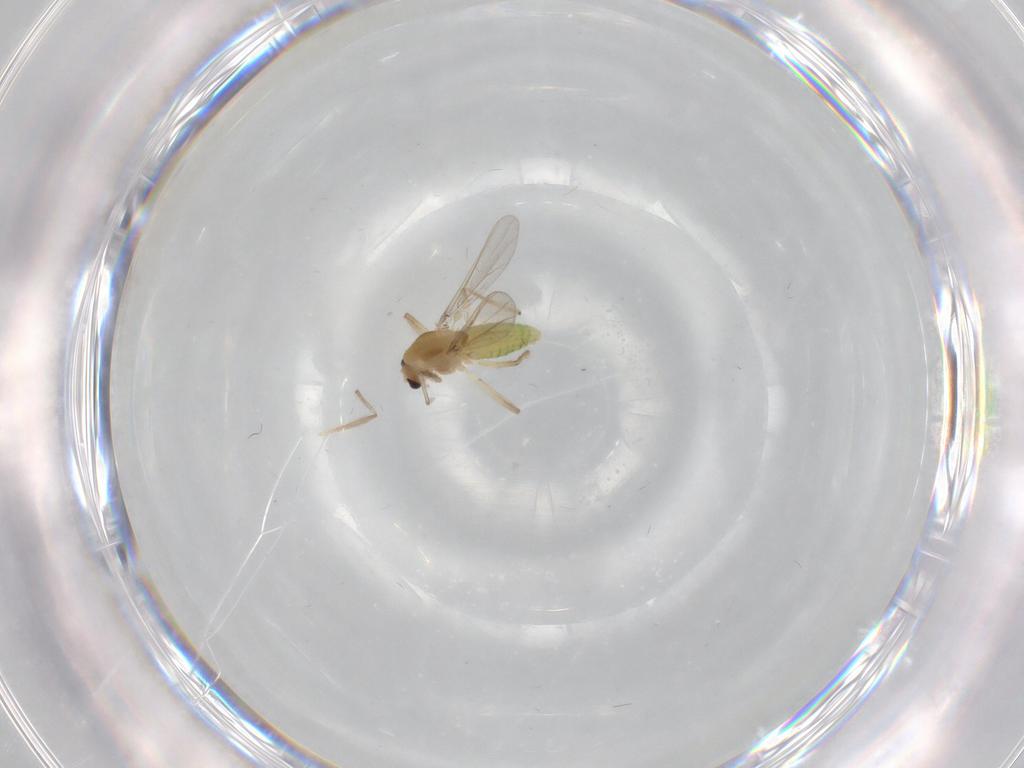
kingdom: Animalia
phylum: Arthropoda
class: Insecta
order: Diptera
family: Chironomidae
